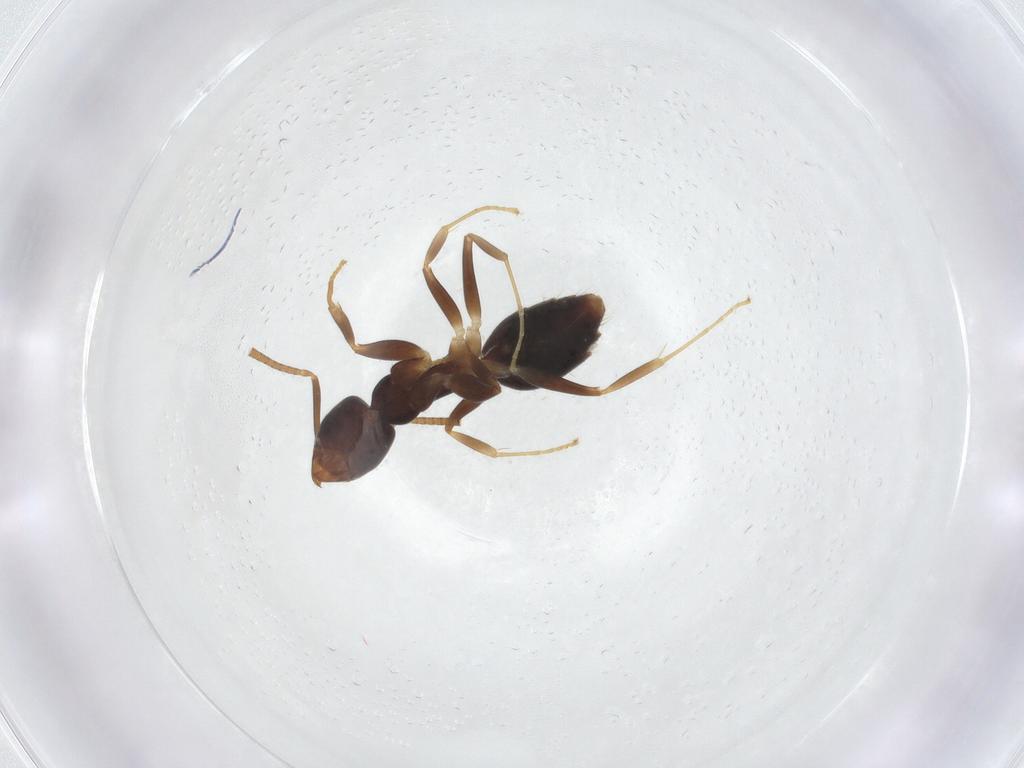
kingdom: Animalia
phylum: Arthropoda
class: Insecta
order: Hymenoptera
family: Formicidae
